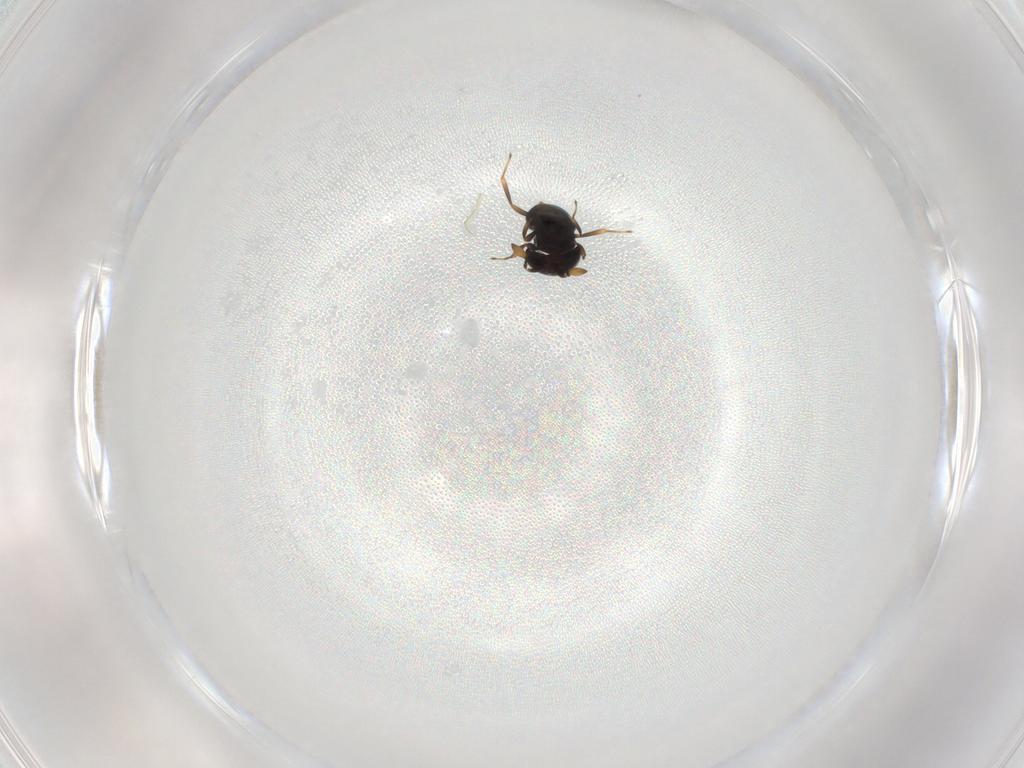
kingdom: Animalia
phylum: Arthropoda
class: Insecta
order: Hymenoptera
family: Scelionidae
